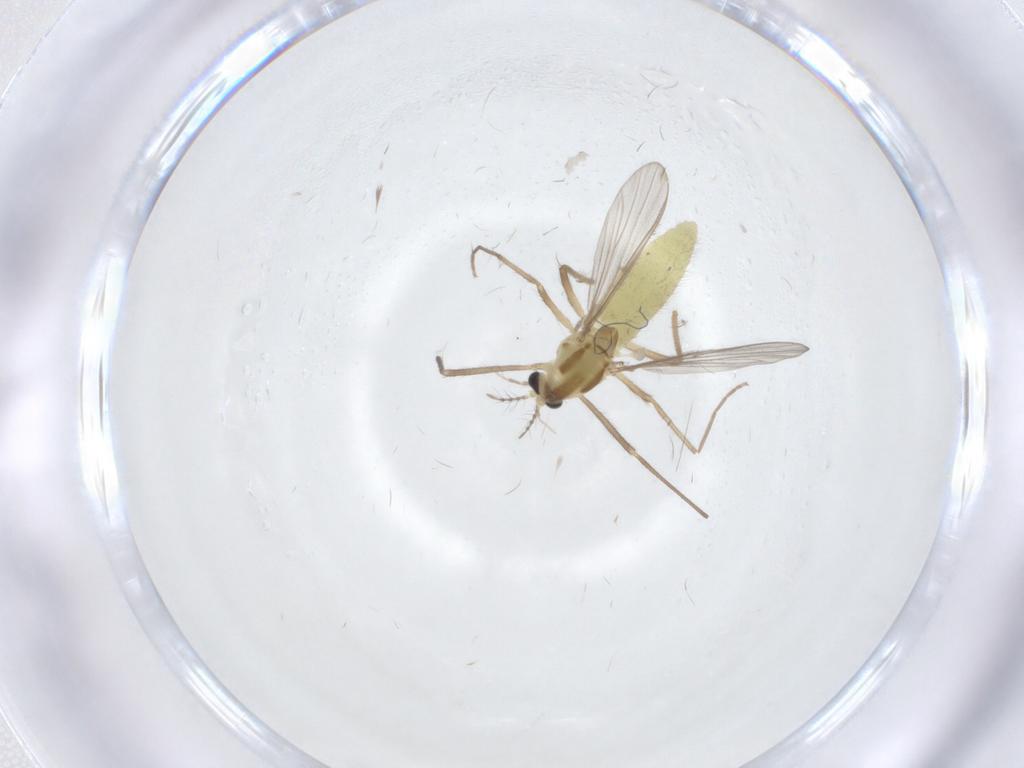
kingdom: Animalia
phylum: Arthropoda
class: Insecta
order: Diptera
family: Chironomidae
